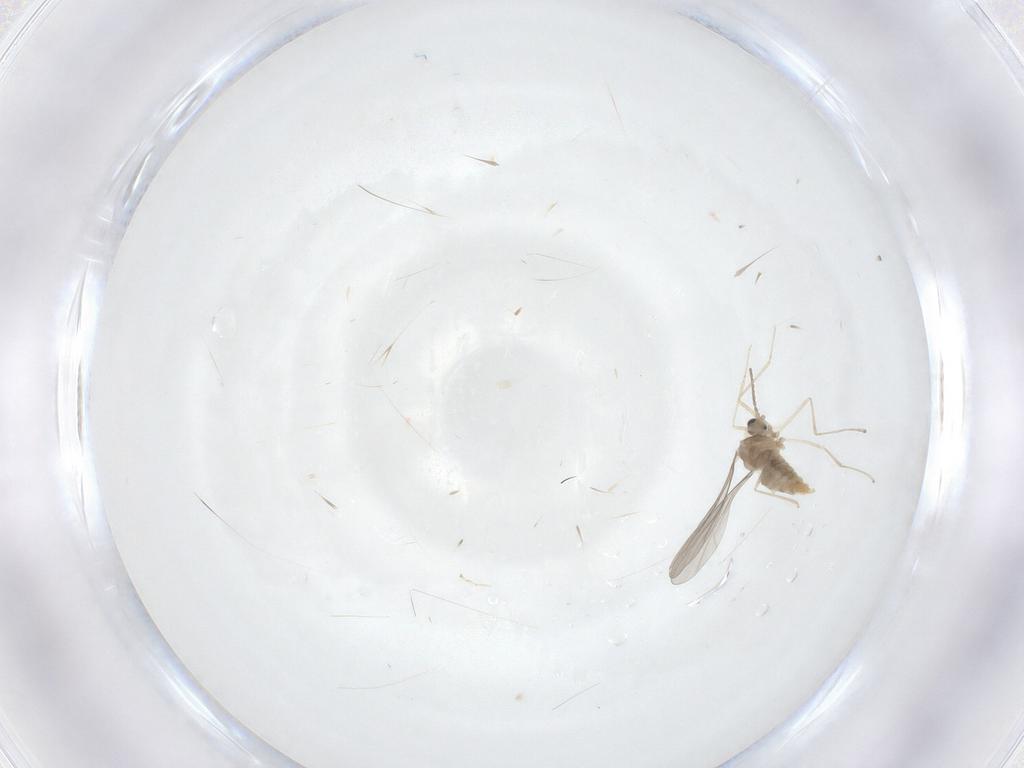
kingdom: Animalia
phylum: Arthropoda
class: Insecta
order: Diptera
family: Cecidomyiidae
